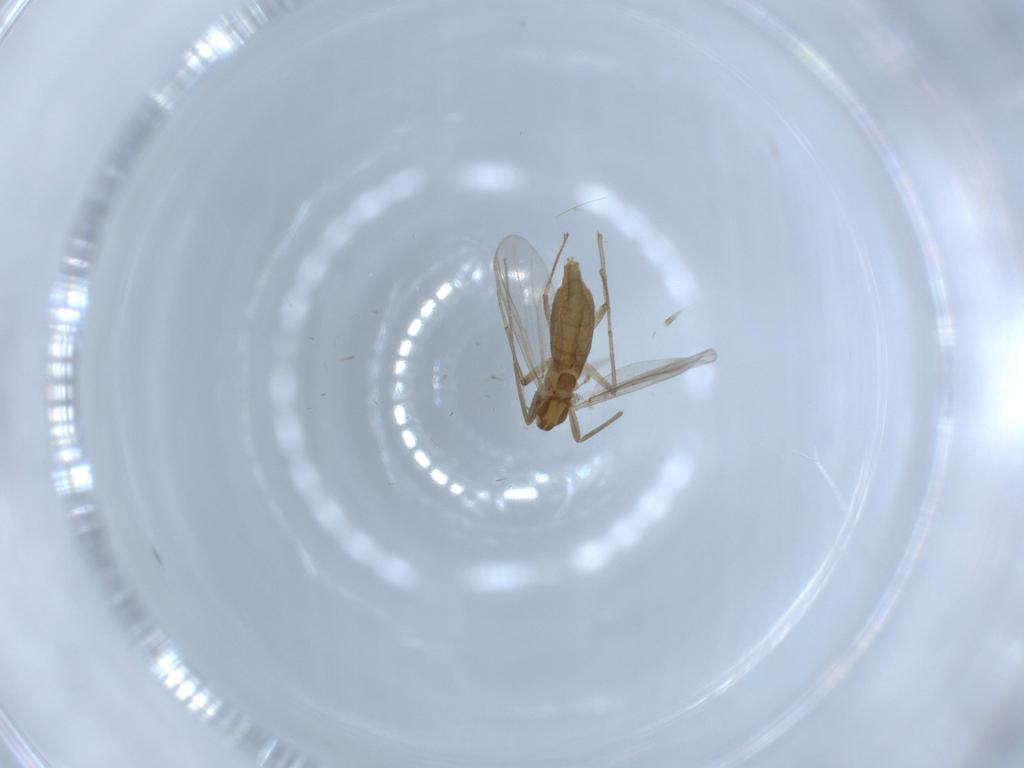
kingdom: Animalia
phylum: Arthropoda
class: Insecta
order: Diptera
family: Chironomidae
